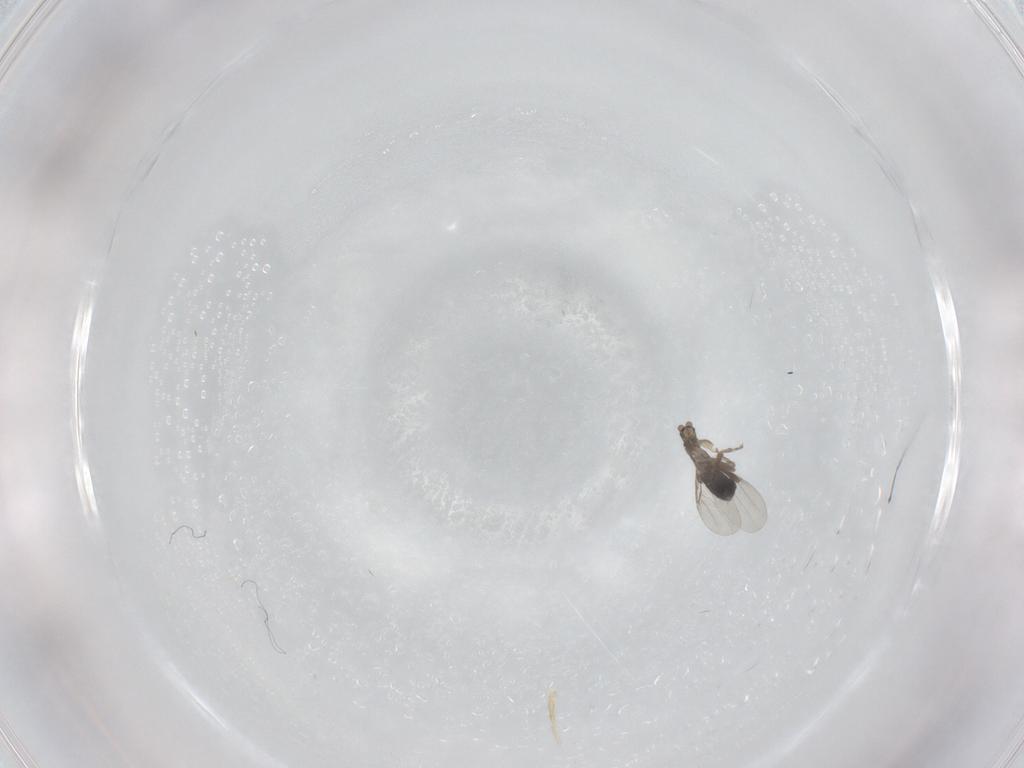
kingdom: Animalia
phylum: Arthropoda
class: Insecta
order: Diptera
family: Phoridae
